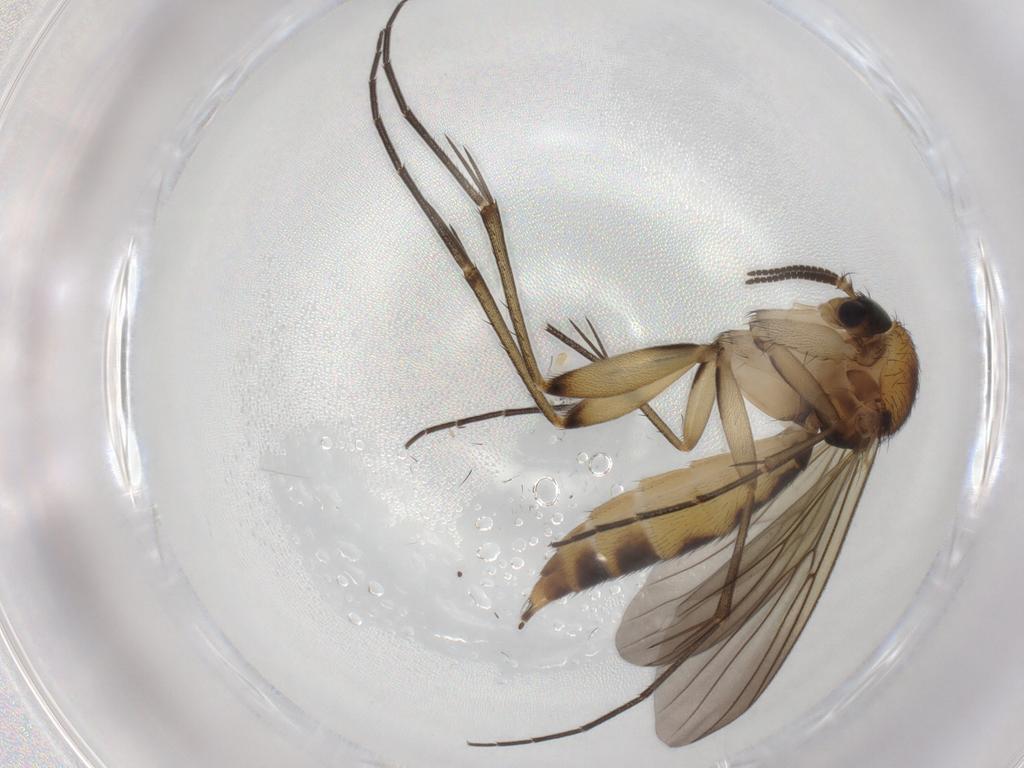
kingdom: Animalia
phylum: Arthropoda
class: Insecta
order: Diptera
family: Mycetophilidae
